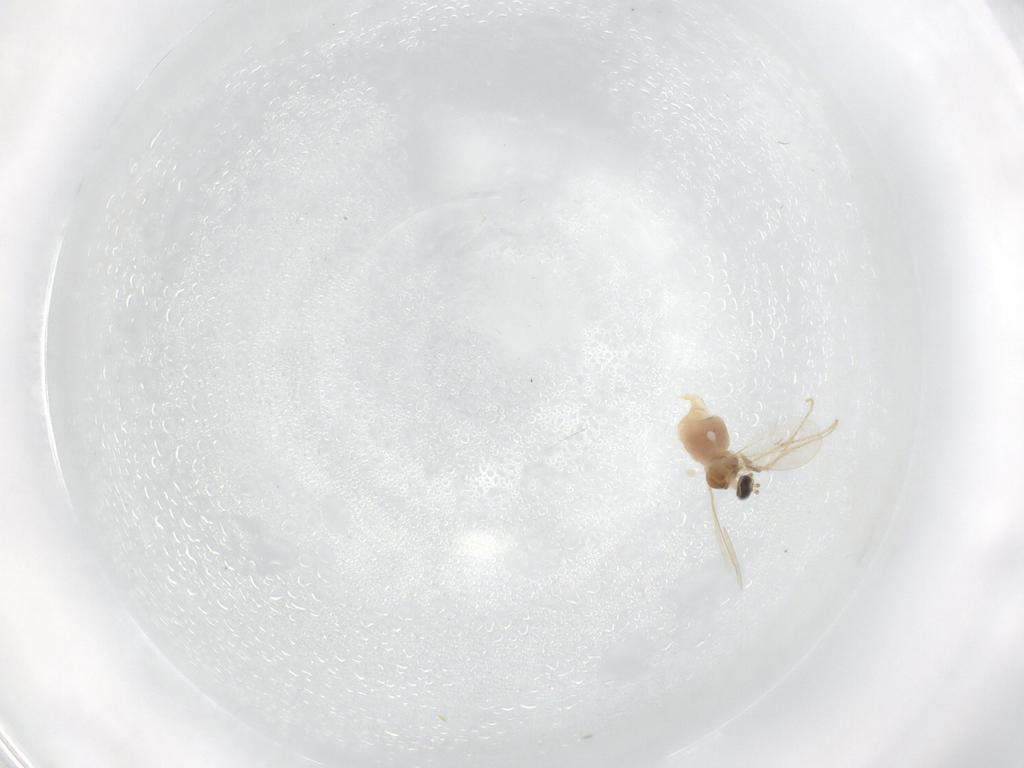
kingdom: Animalia
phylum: Arthropoda
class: Insecta
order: Diptera
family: Cecidomyiidae
